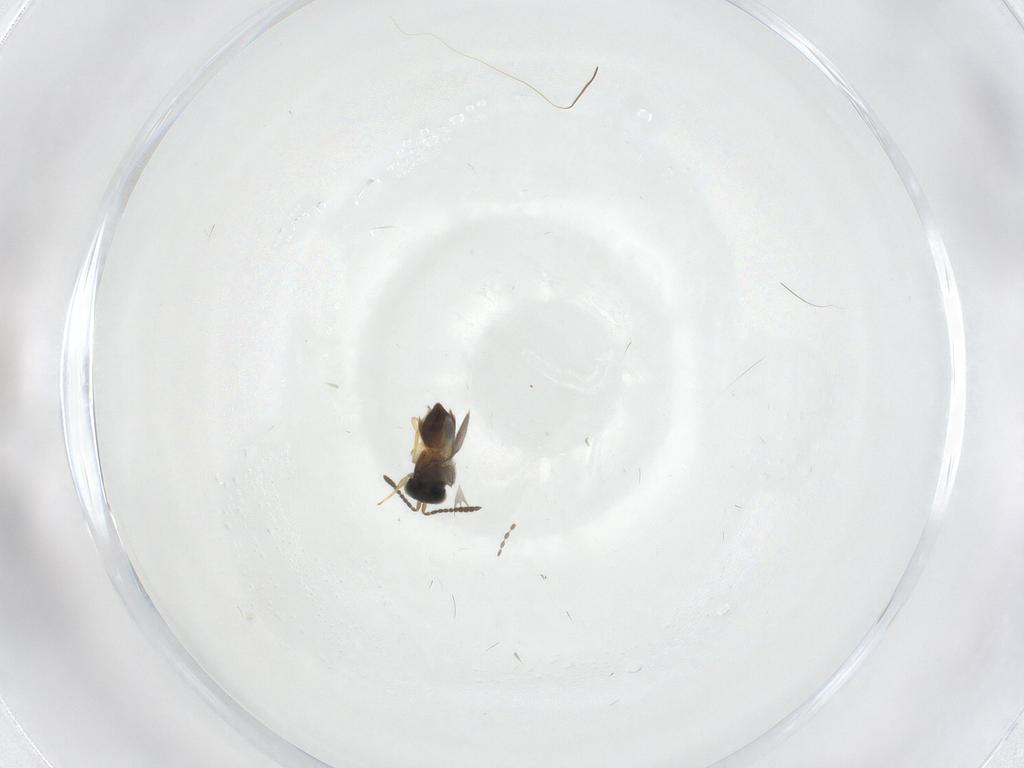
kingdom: Animalia
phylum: Arthropoda
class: Insecta
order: Hymenoptera
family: Scelionidae
